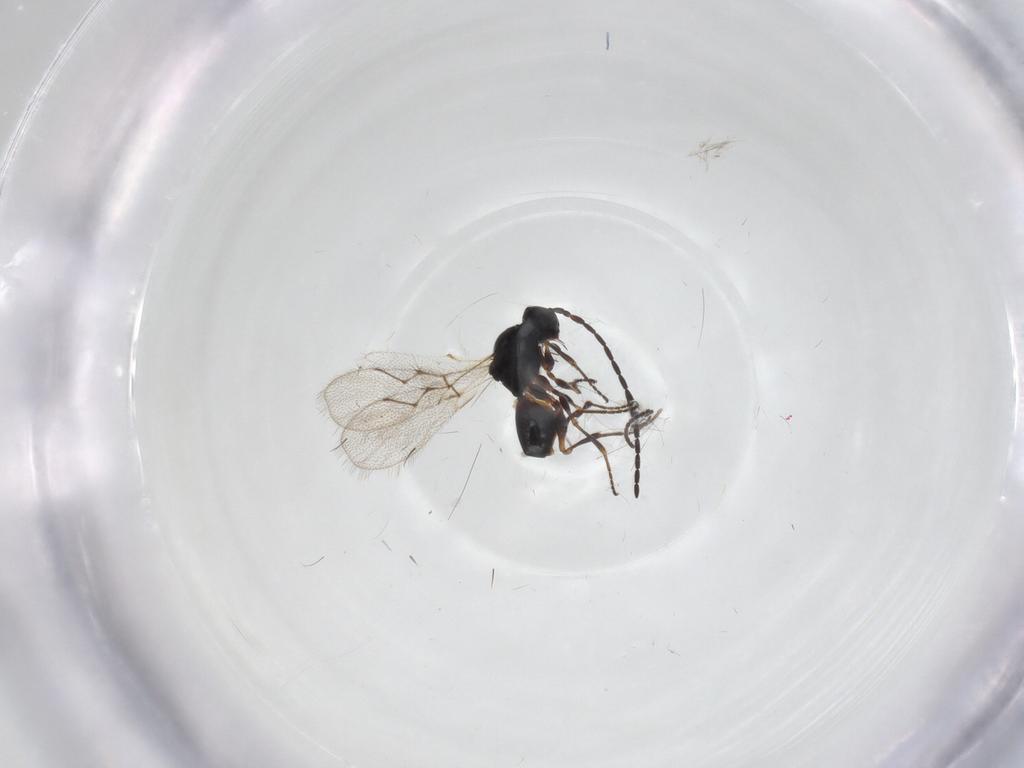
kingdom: Animalia
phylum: Arthropoda
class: Insecta
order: Hymenoptera
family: Figitidae
